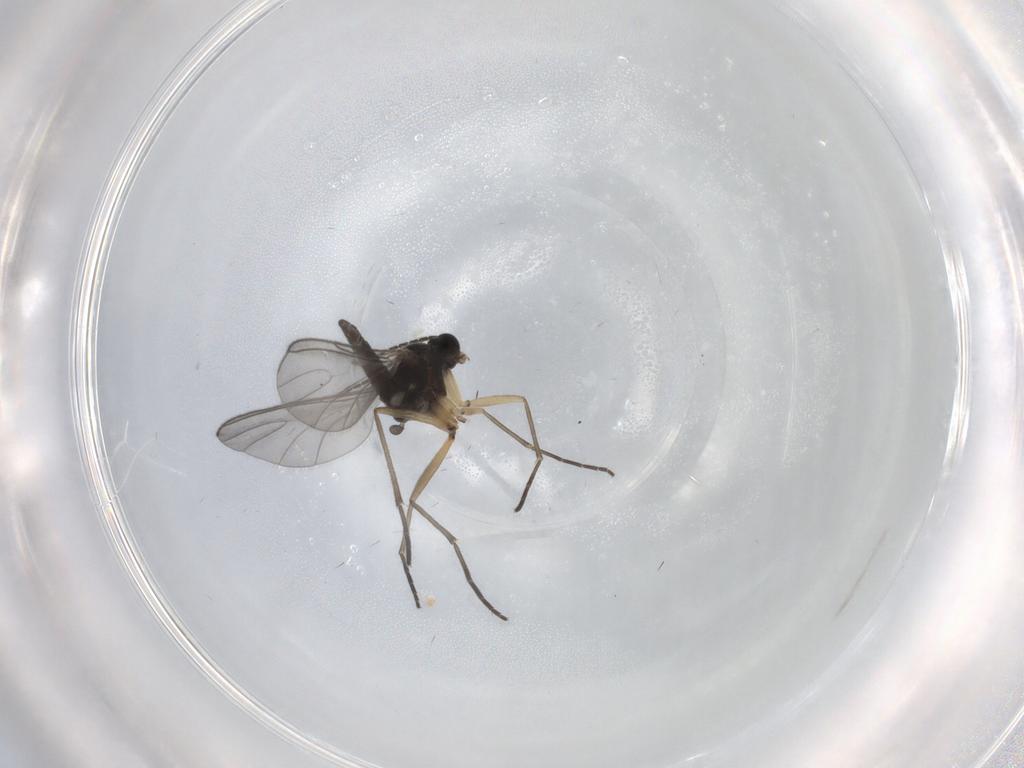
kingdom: Animalia
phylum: Arthropoda
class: Insecta
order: Diptera
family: Sciaridae
